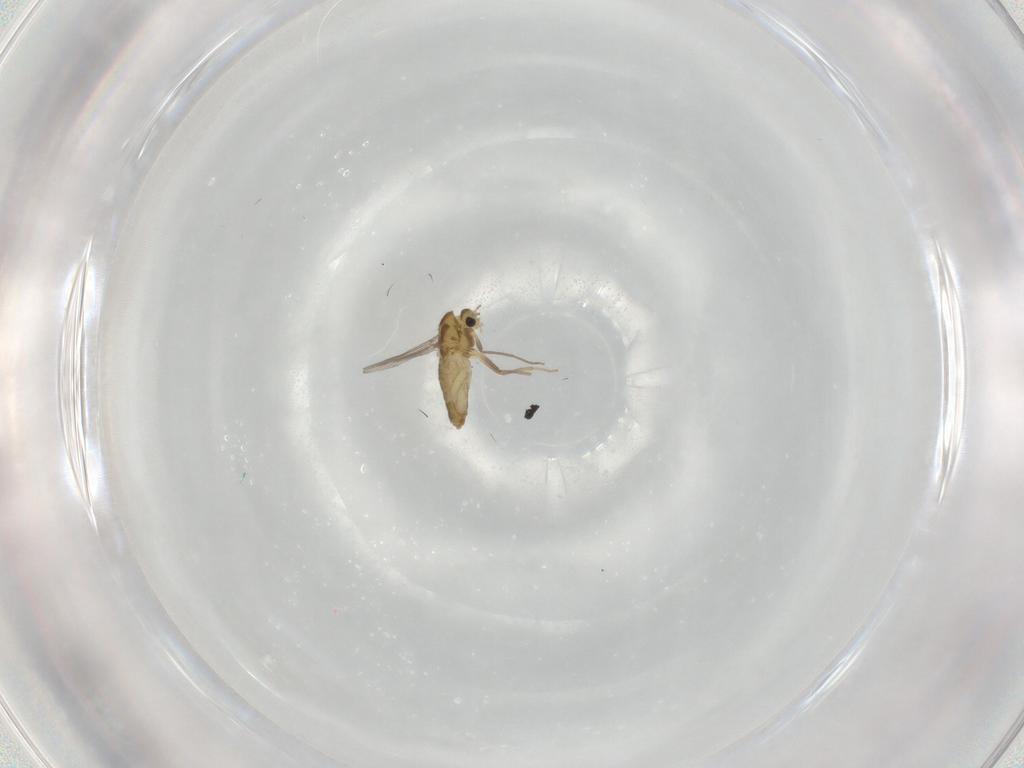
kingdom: Animalia
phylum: Arthropoda
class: Insecta
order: Diptera
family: Chironomidae
